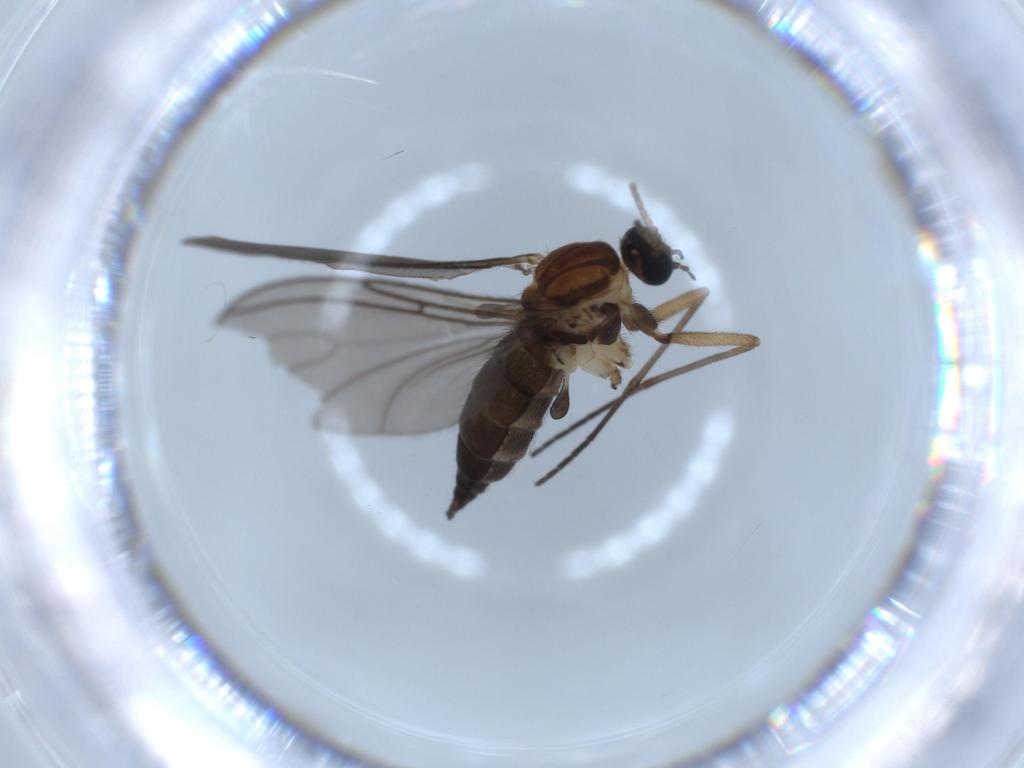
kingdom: Animalia
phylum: Arthropoda
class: Insecta
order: Diptera
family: Sciaridae
